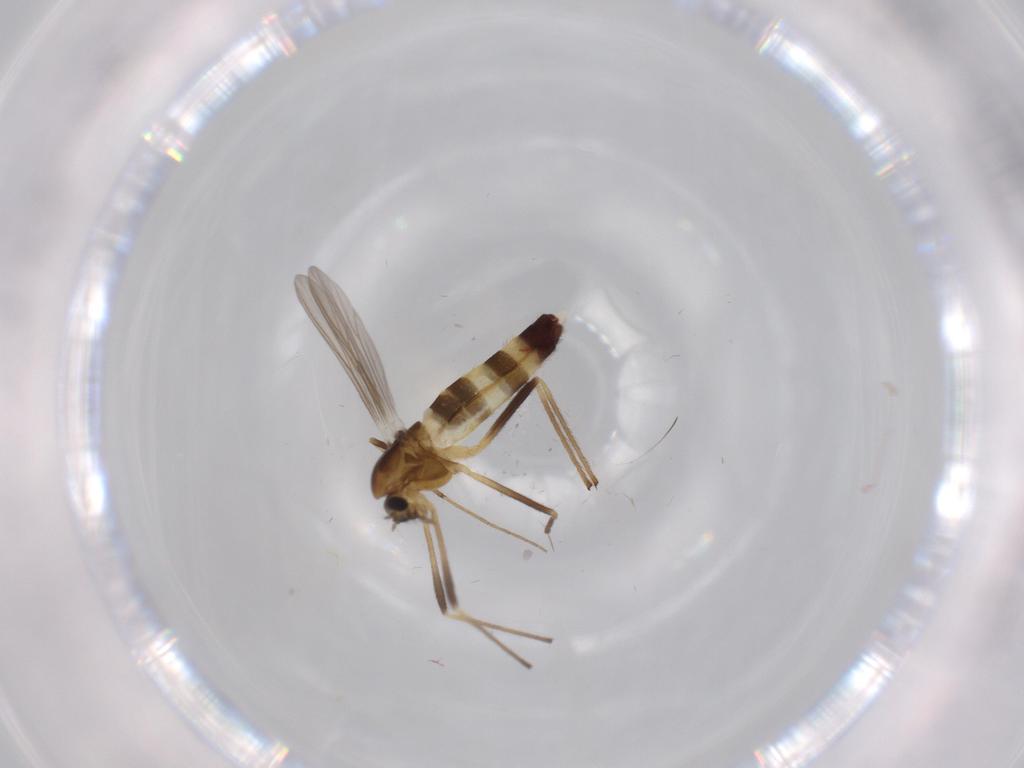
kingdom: Animalia
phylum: Arthropoda
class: Insecta
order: Diptera
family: Chironomidae
